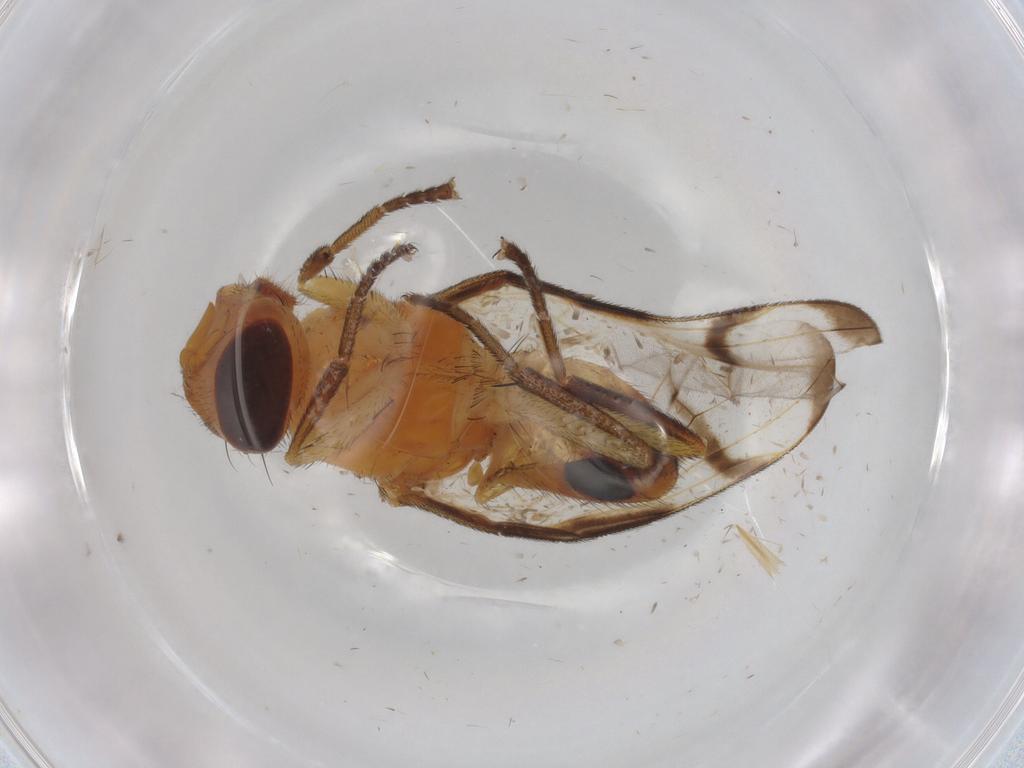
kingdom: Animalia
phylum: Arthropoda
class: Insecta
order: Diptera
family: Platystomatidae
